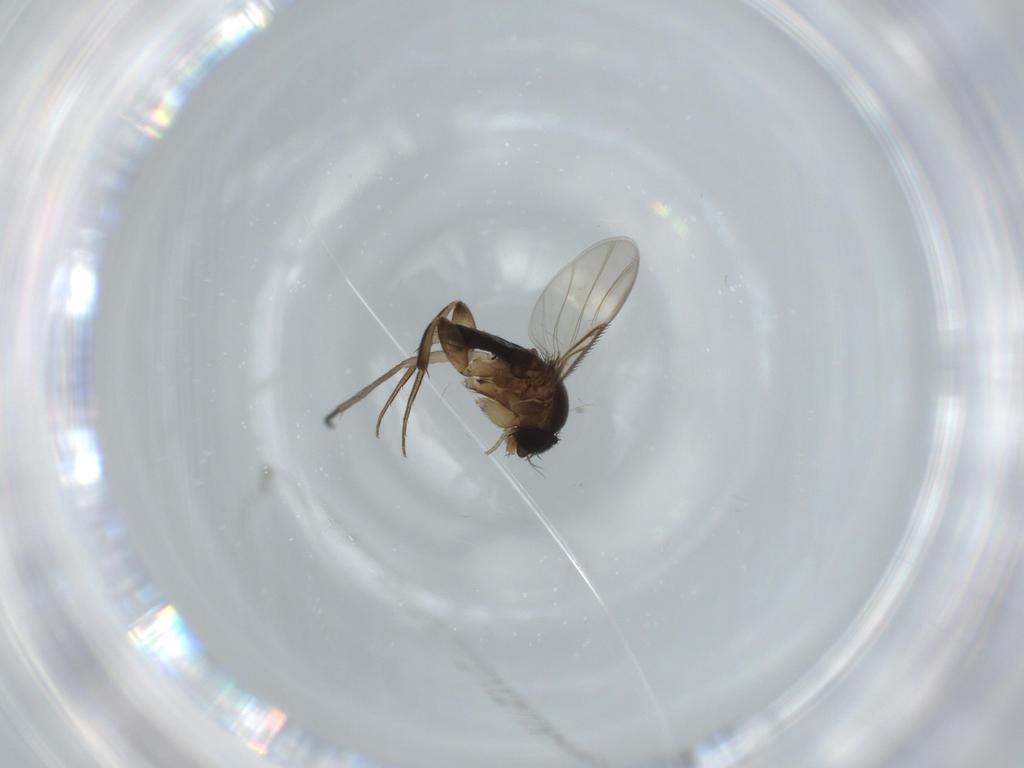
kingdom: Animalia
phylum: Arthropoda
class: Insecta
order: Diptera
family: Phoridae
